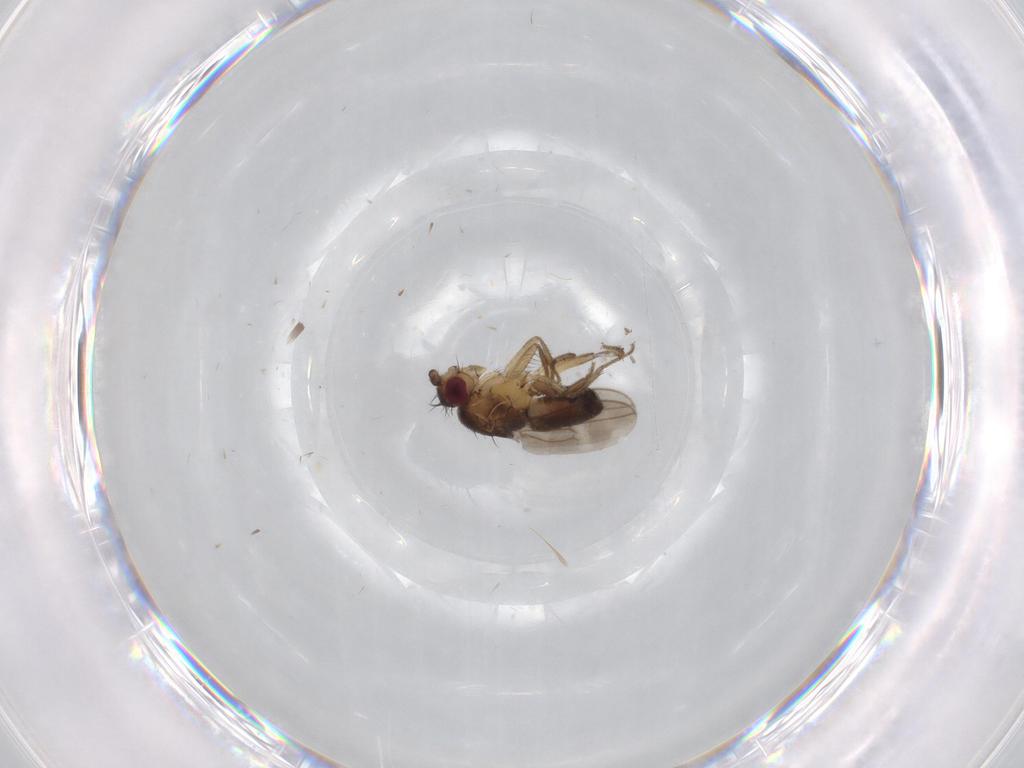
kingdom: Animalia
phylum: Arthropoda
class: Insecta
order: Diptera
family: Sphaeroceridae
